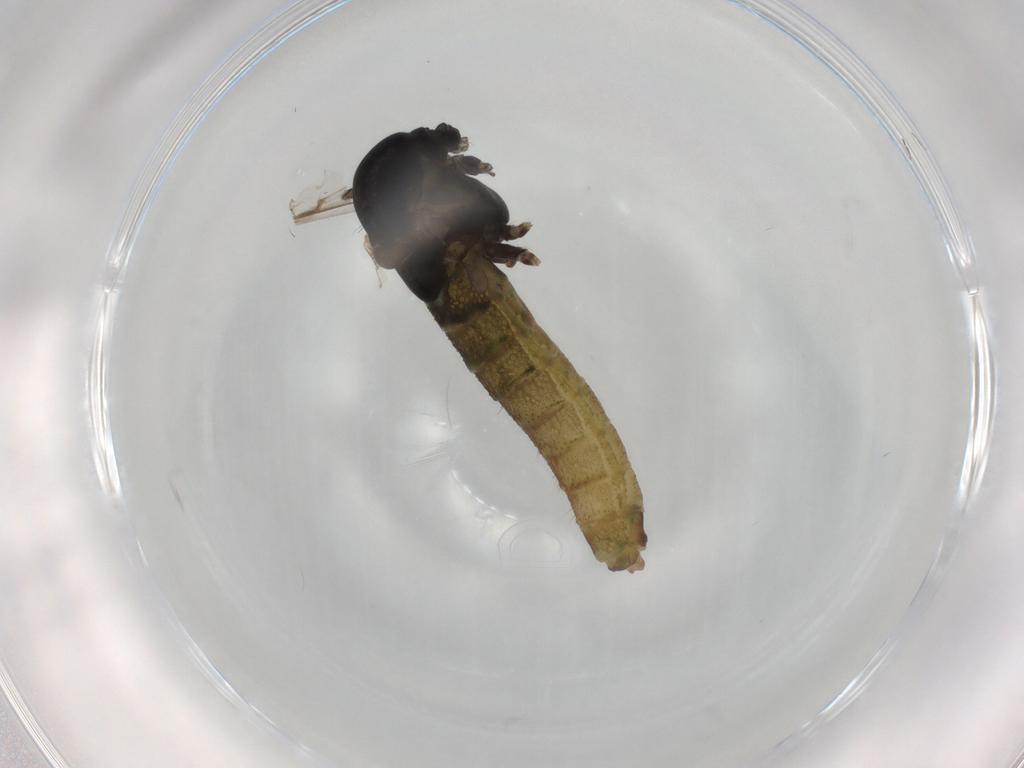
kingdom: Animalia
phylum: Arthropoda
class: Insecta
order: Diptera
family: Chironomidae
